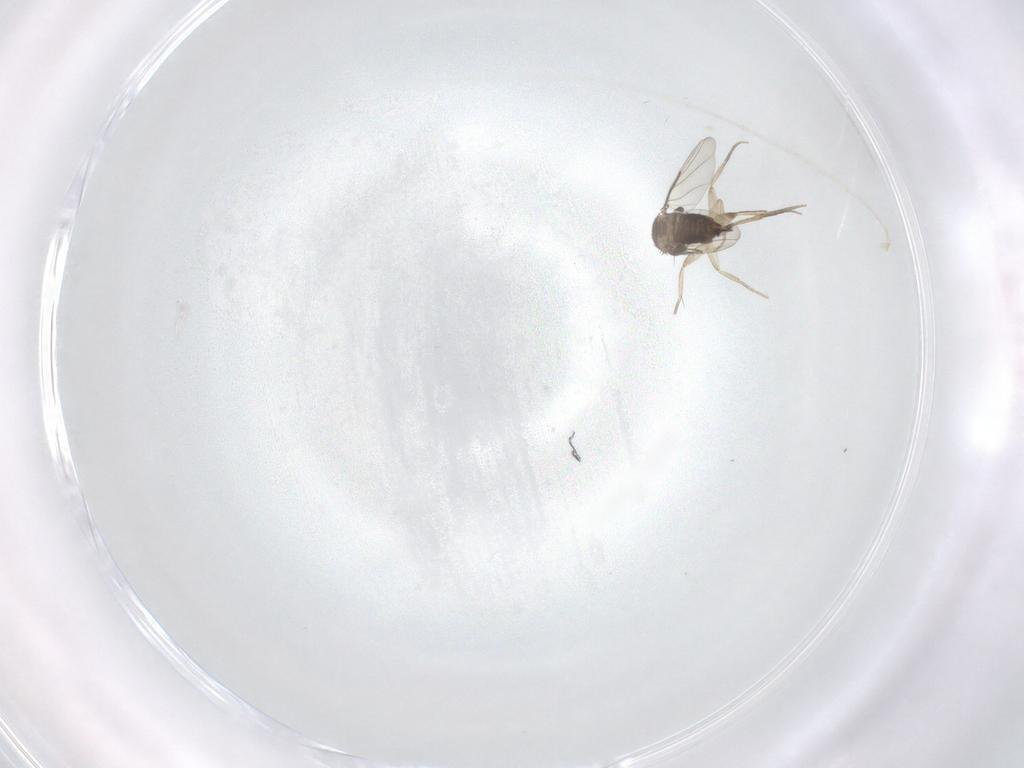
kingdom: Animalia
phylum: Arthropoda
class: Insecta
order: Diptera
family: Phoridae
